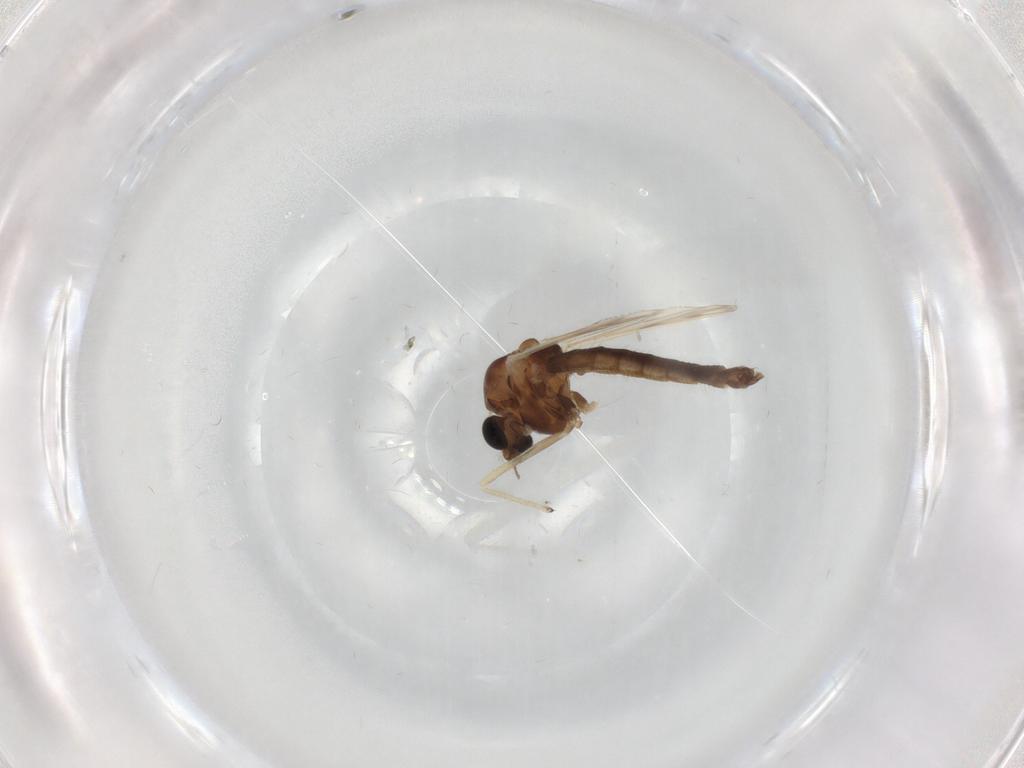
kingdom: Animalia
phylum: Arthropoda
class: Insecta
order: Diptera
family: Chironomidae
